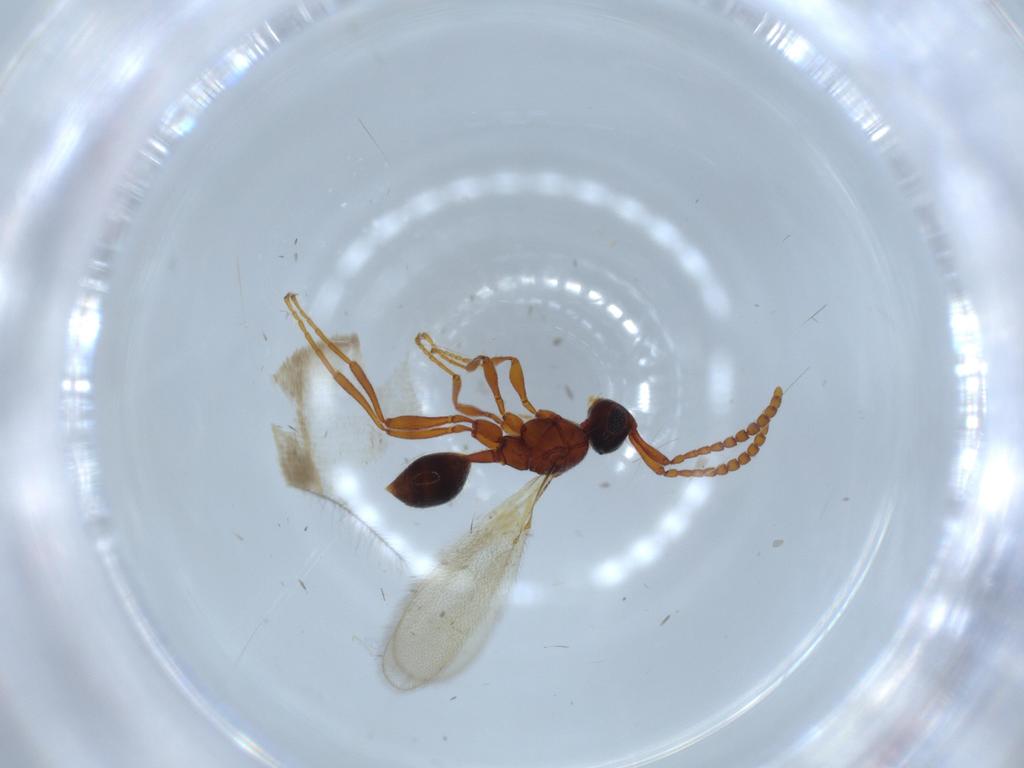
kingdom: Animalia
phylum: Arthropoda
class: Insecta
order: Hymenoptera
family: Diapriidae
